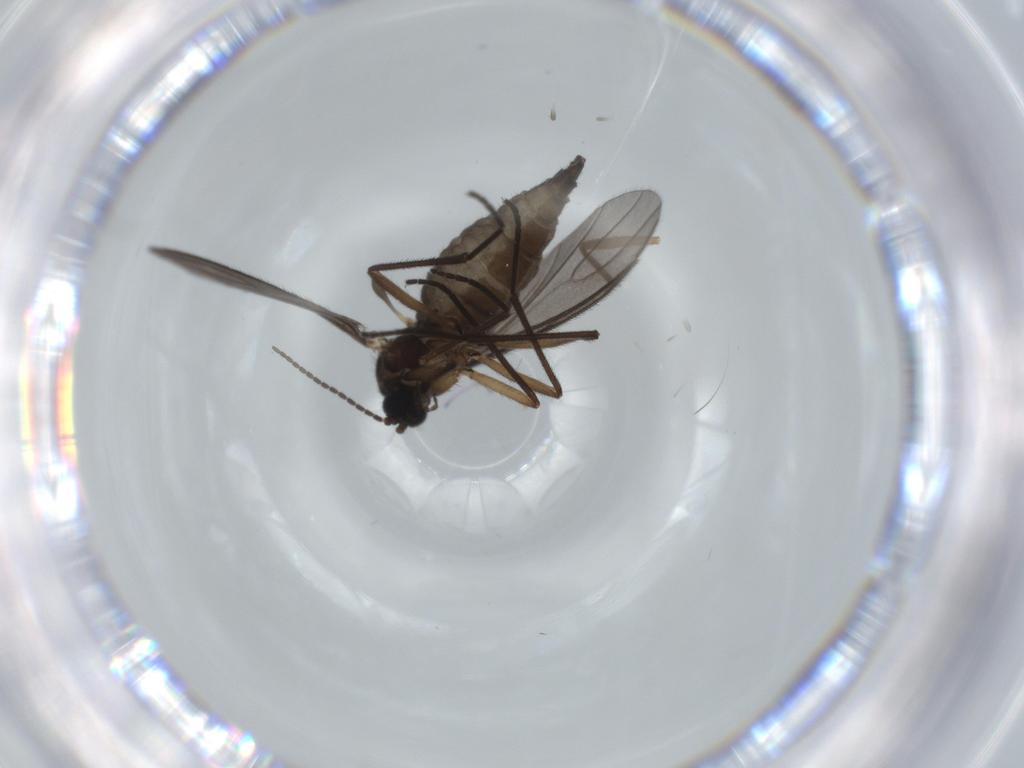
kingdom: Animalia
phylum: Arthropoda
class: Insecta
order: Diptera
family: Sciaridae
